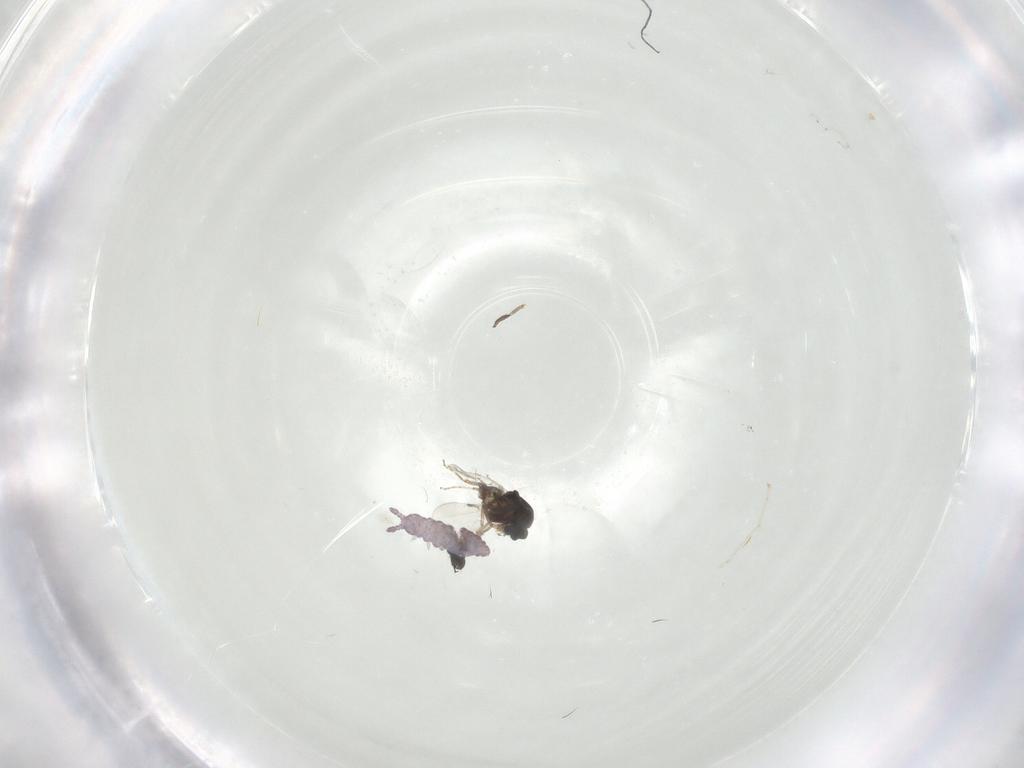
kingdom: Animalia
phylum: Arthropoda
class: Collembola
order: Poduromorpha
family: Hypogastruridae
